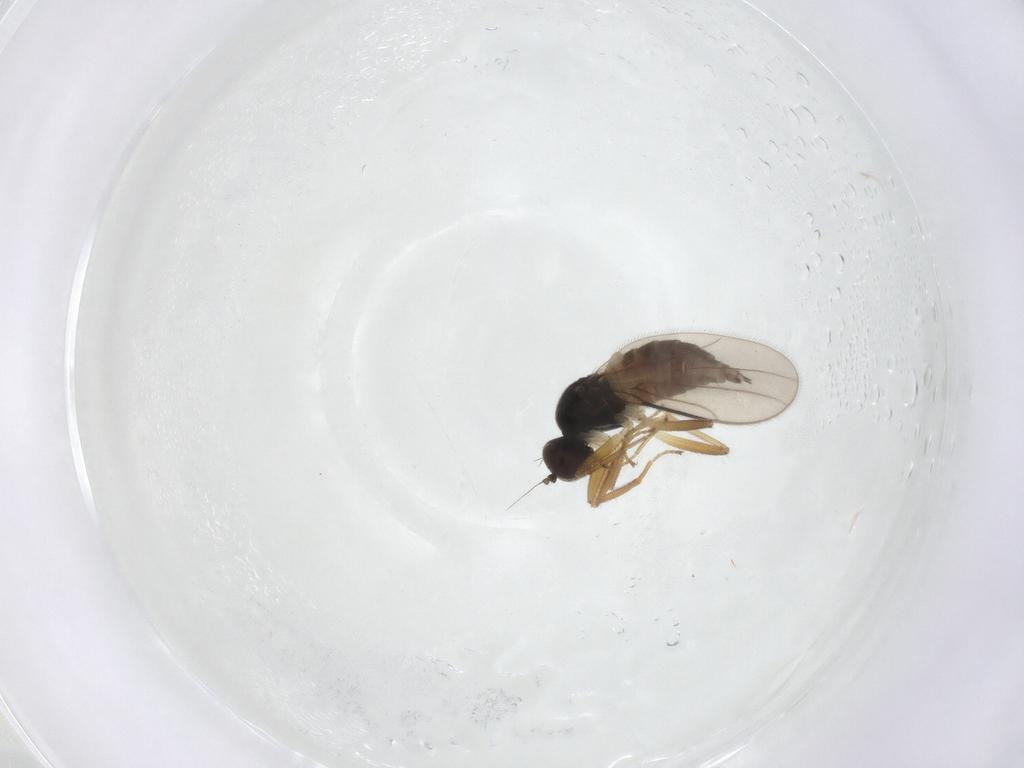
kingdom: Animalia
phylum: Arthropoda
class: Insecta
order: Diptera
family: Hybotidae
